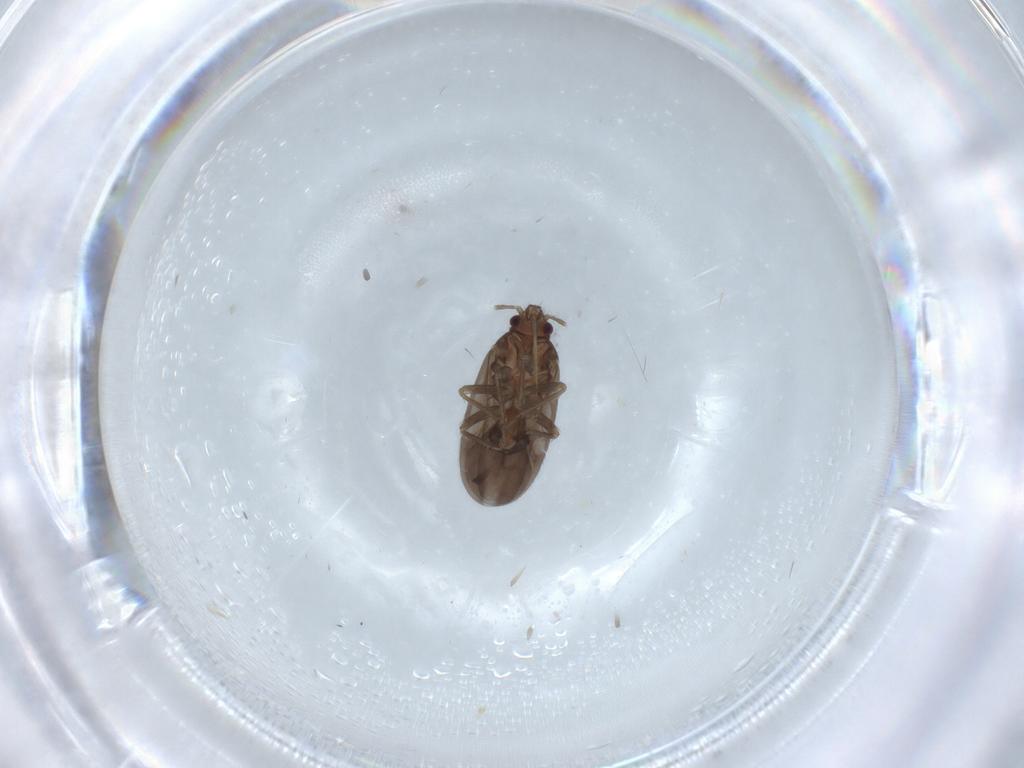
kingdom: Animalia
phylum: Arthropoda
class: Insecta
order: Hemiptera
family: Ceratocombidae
